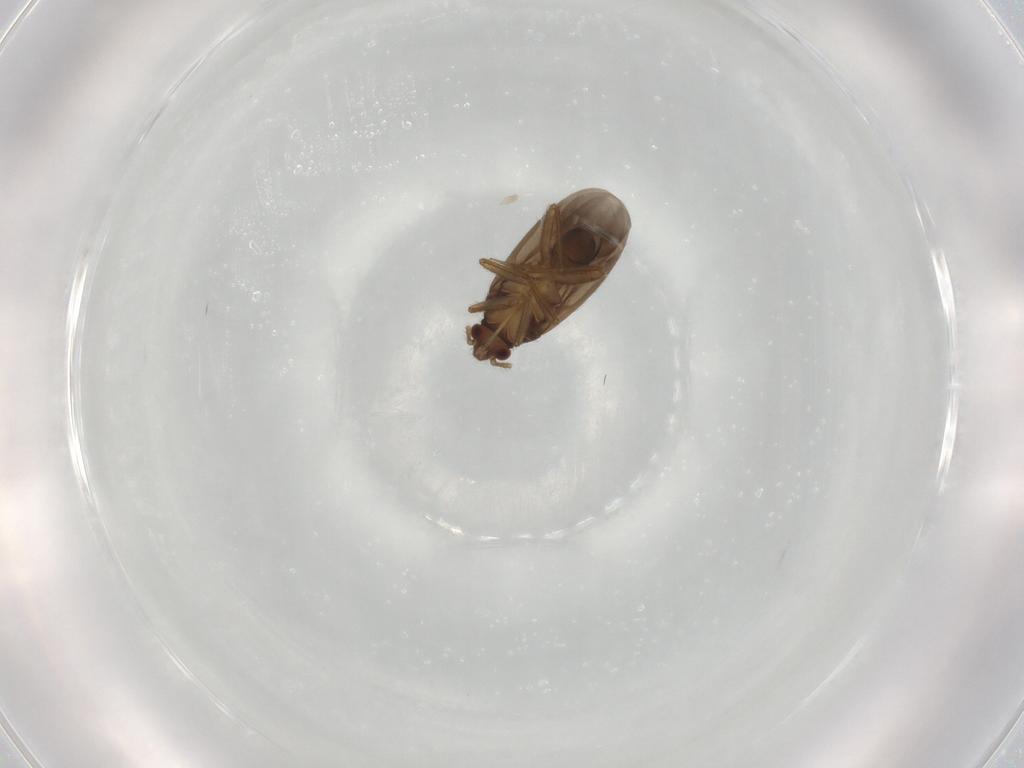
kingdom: Animalia
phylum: Arthropoda
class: Insecta
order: Hemiptera
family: Ceratocombidae
